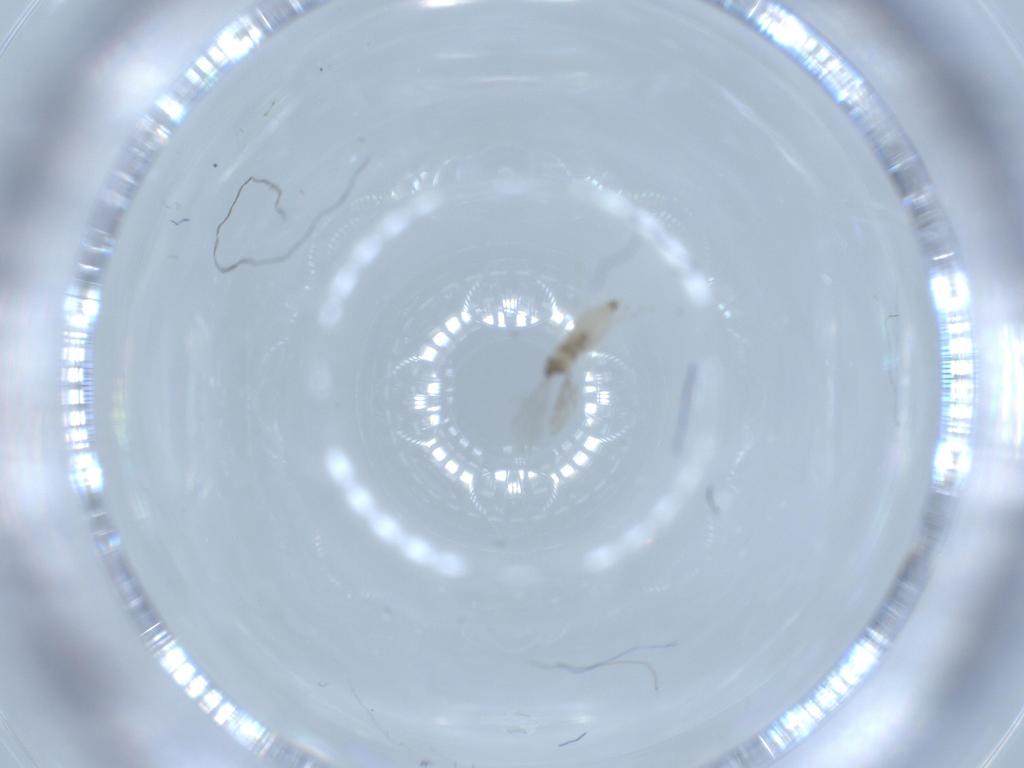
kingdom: Animalia
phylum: Arthropoda
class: Insecta
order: Diptera
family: Cecidomyiidae
